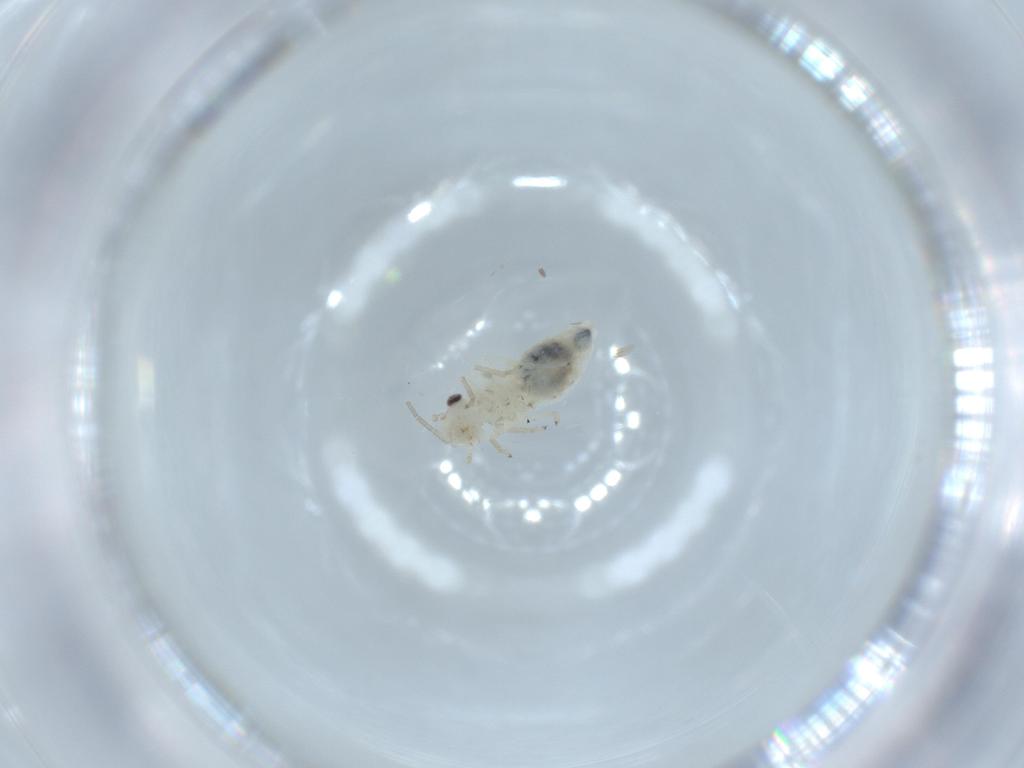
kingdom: Animalia
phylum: Arthropoda
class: Insecta
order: Psocodea
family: Caeciliusidae
